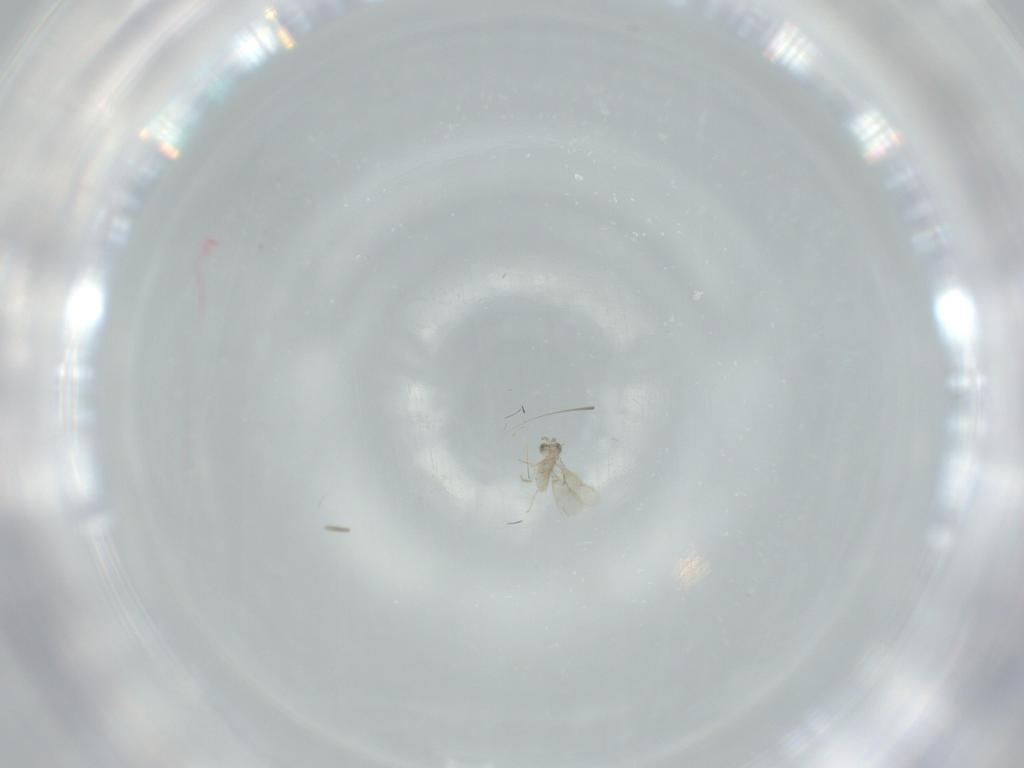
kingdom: Animalia
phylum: Arthropoda
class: Insecta
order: Hymenoptera
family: Aphelinidae
